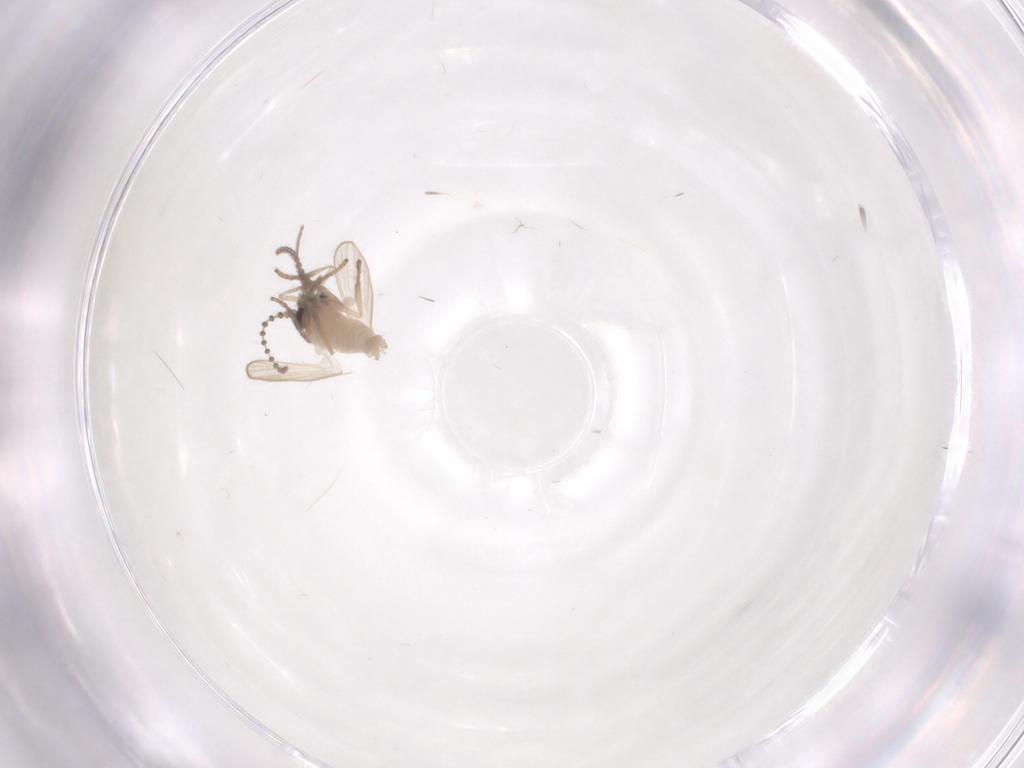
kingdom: Animalia
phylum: Arthropoda
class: Insecta
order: Diptera
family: Psychodidae
